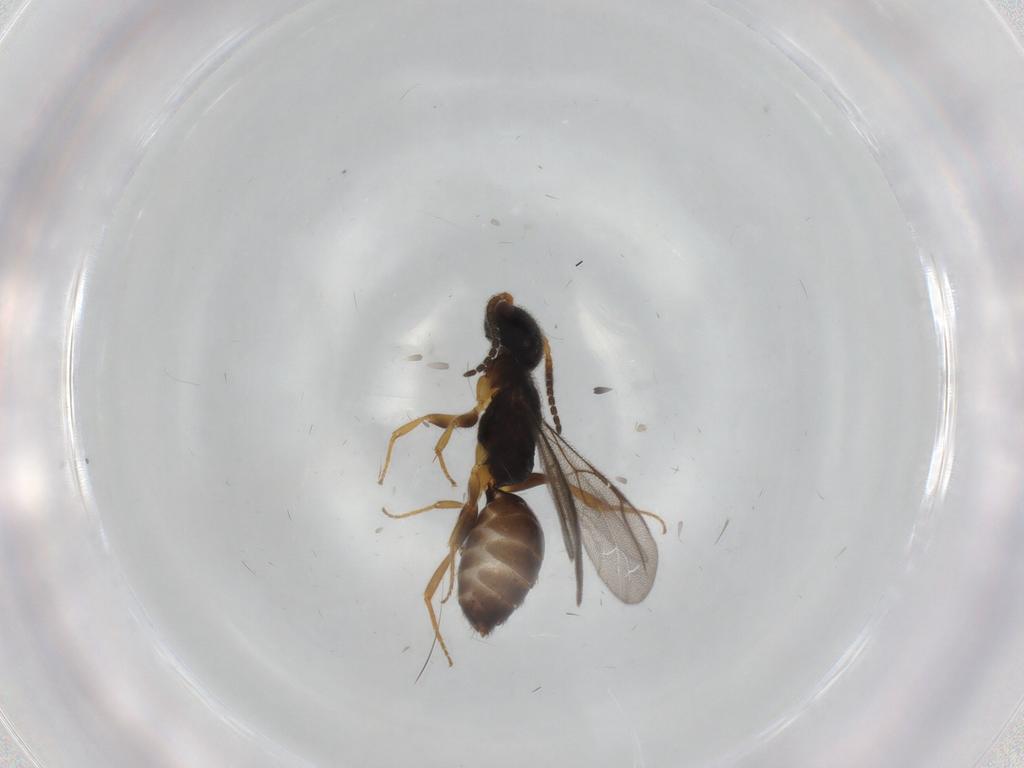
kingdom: Animalia
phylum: Arthropoda
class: Insecta
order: Hymenoptera
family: Bethylidae
